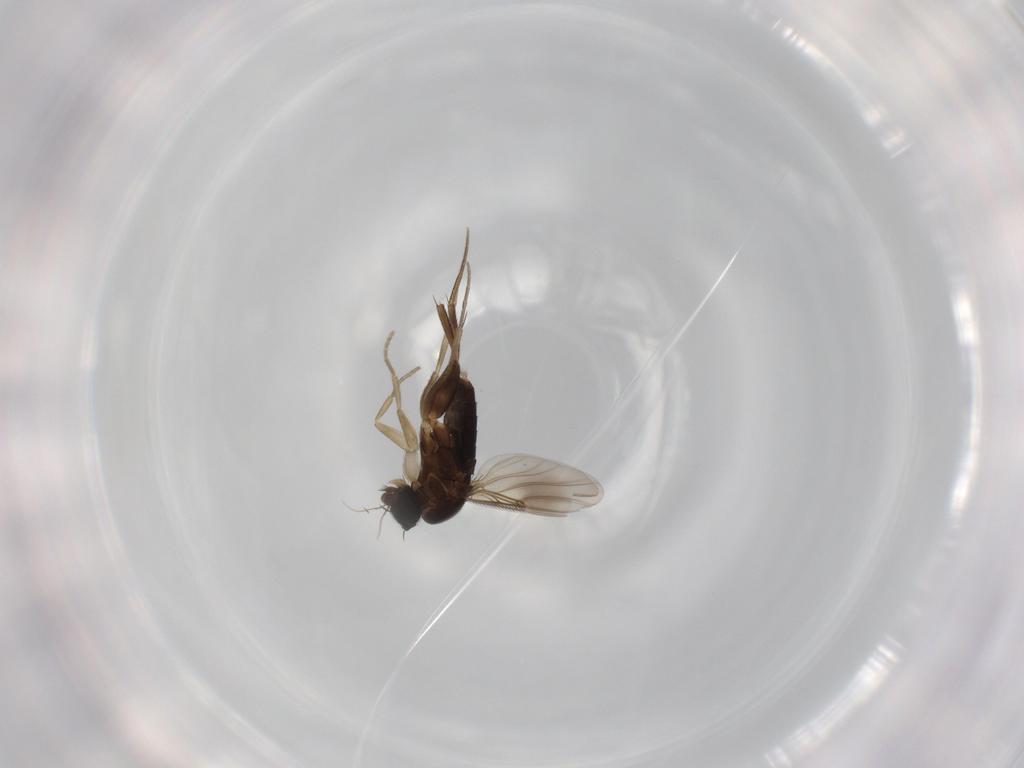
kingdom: Animalia
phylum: Arthropoda
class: Insecta
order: Diptera
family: Phoridae
